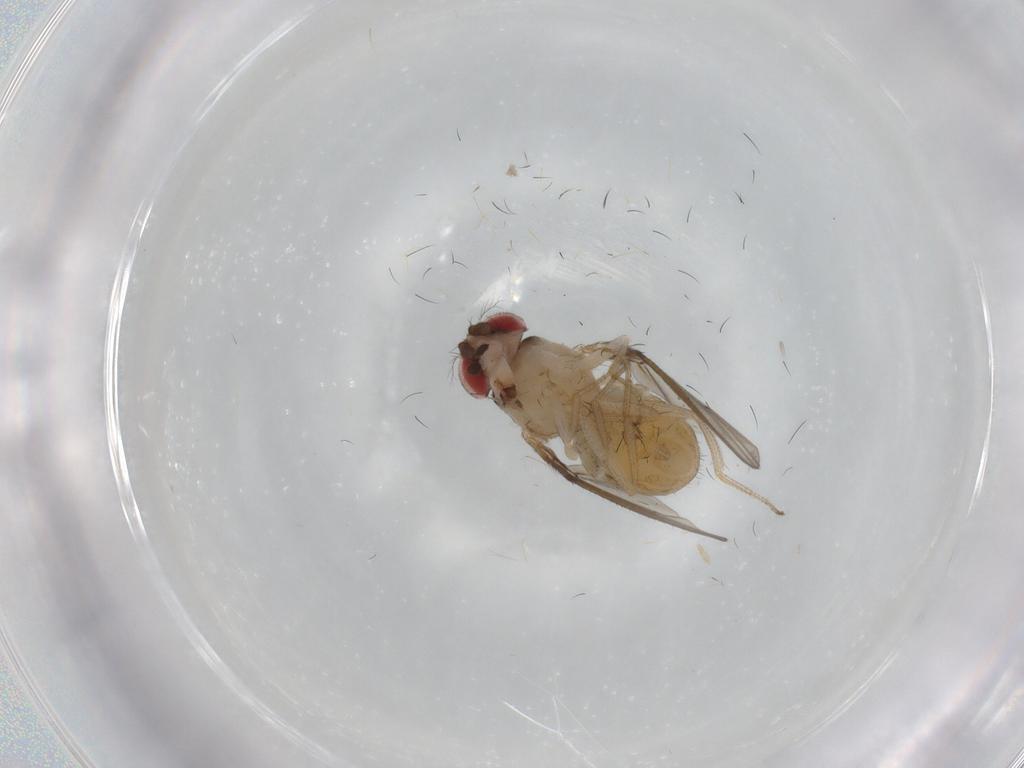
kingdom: Animalia
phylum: Arthropoda
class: Insecta
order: Diptera
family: Drosophilidae
